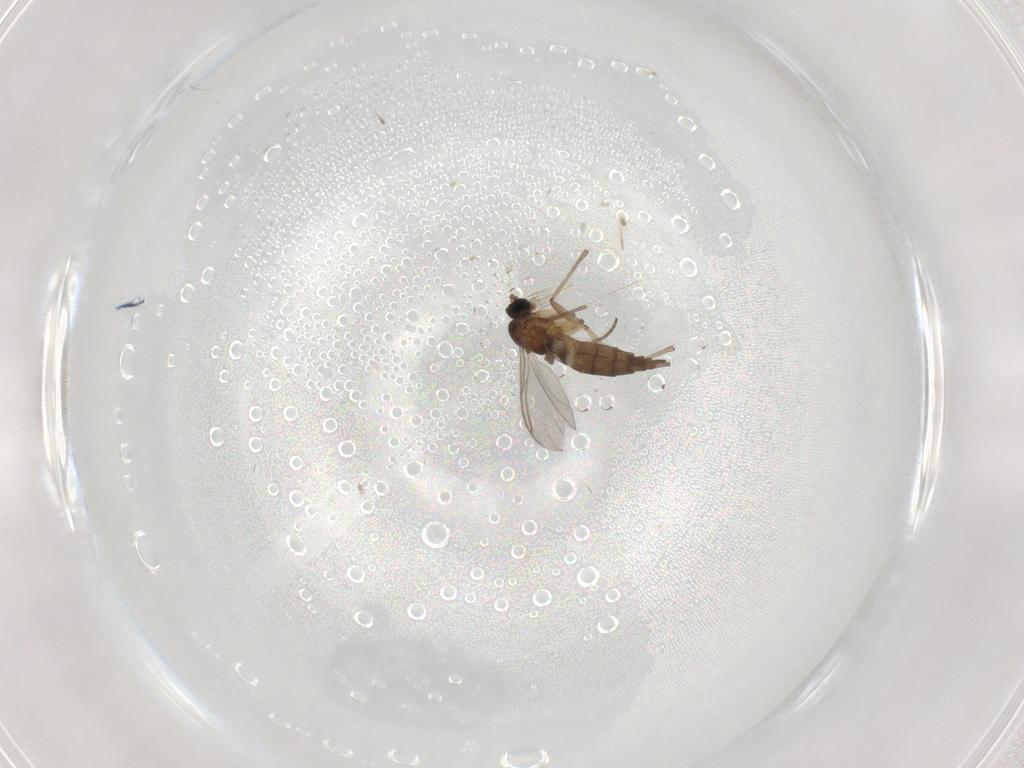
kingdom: Animalia
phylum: Arthropoda
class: Insecta
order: Diptera
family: Sciaridae
